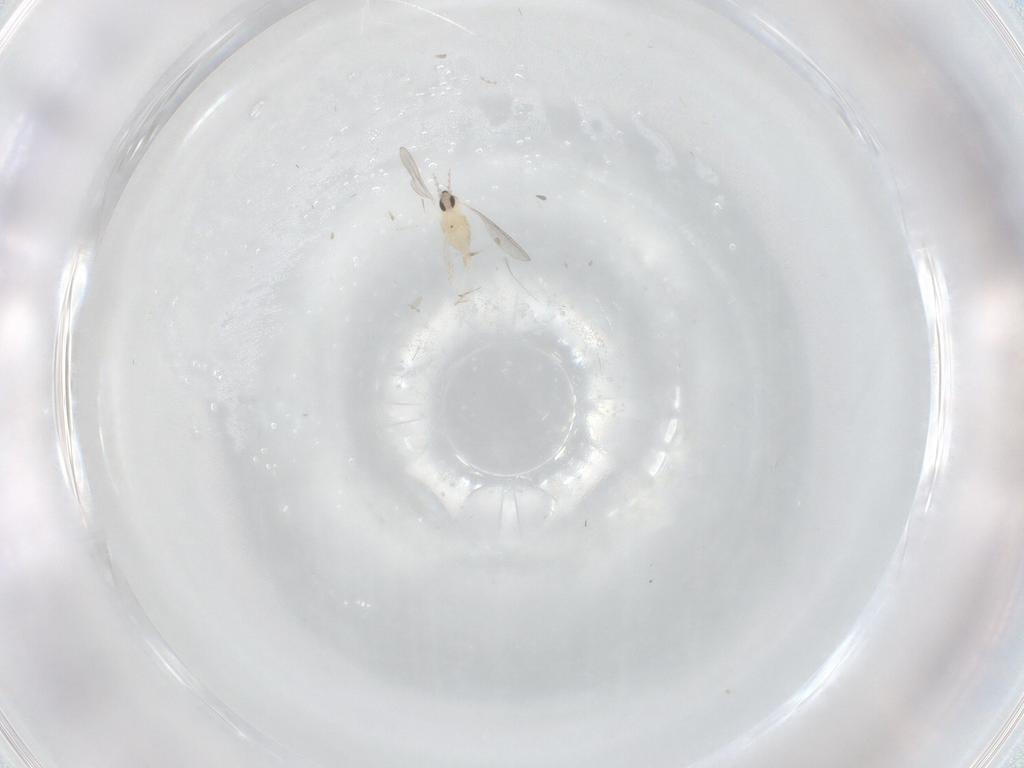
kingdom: Animalia
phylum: Arthropoda
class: Insecta
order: Diptera
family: Cecidomyiidae
